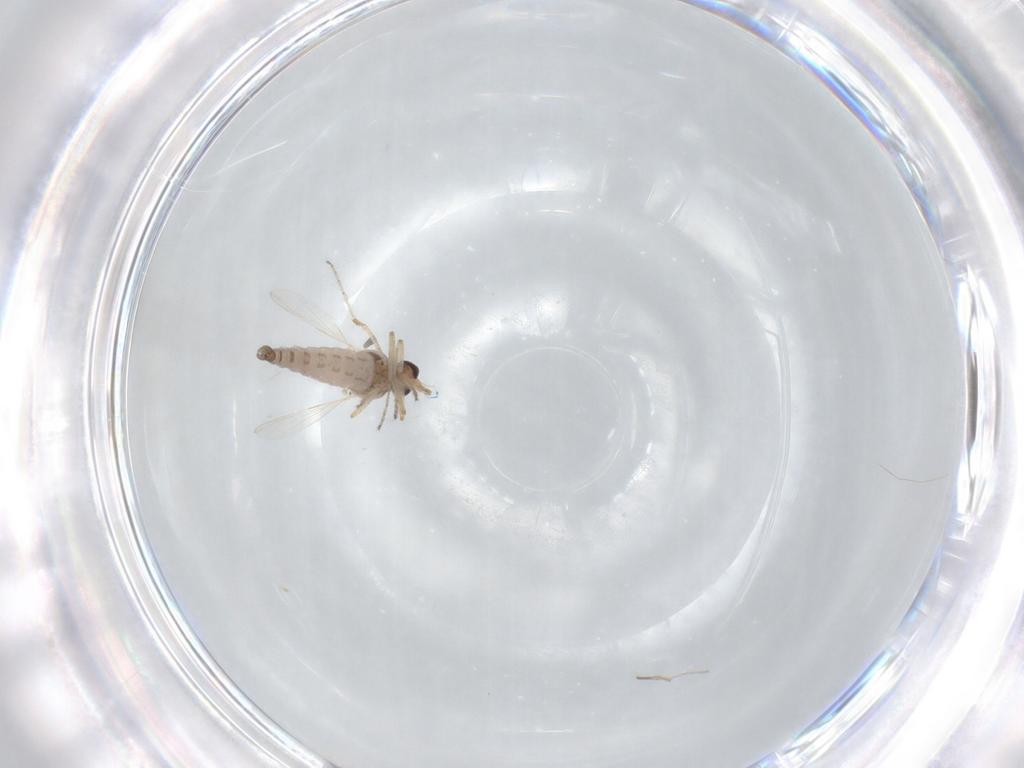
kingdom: Animalia
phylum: Arthropoda
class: Insecta
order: Diptera
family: Ceratopogonidae
